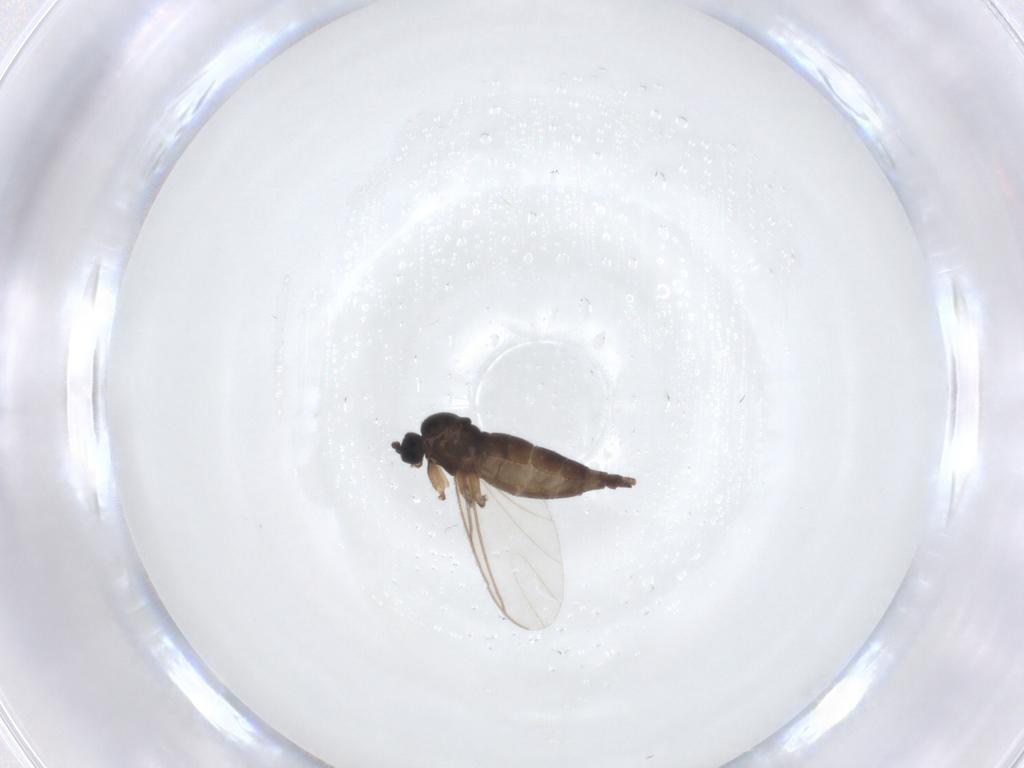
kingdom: Animalia
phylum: Arthropoda
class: Insecta
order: Diptera
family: Sciaridae
